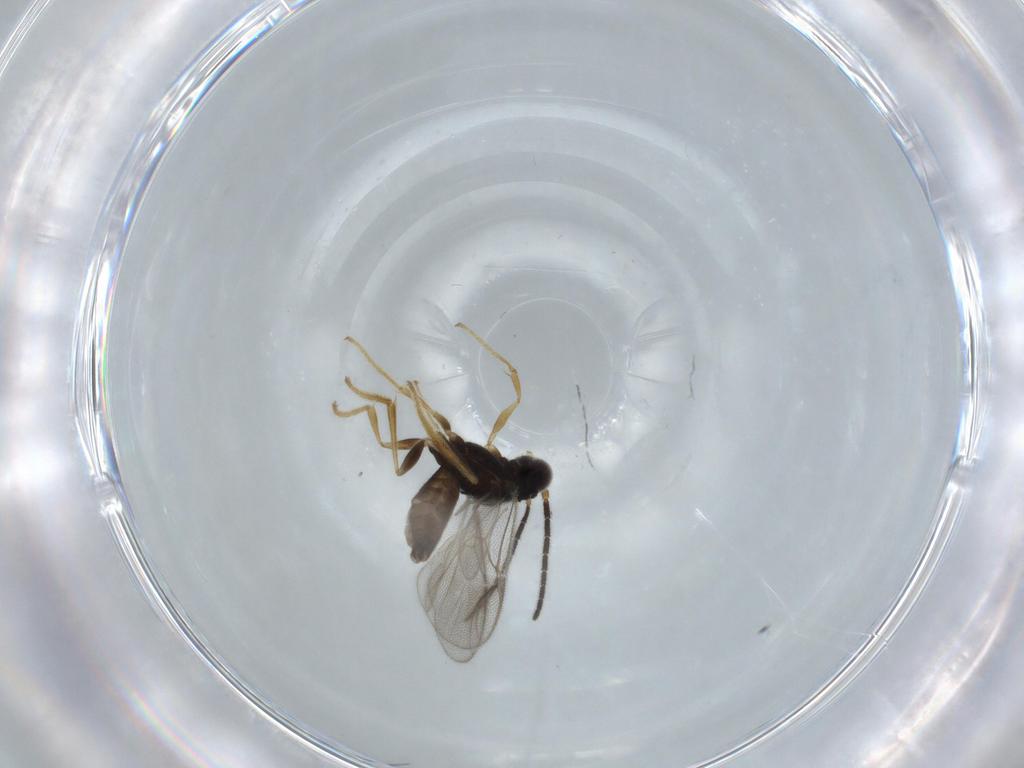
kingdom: Animalia
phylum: Arthropoda
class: Insecta
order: Hymenoptera
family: Dryinidae
